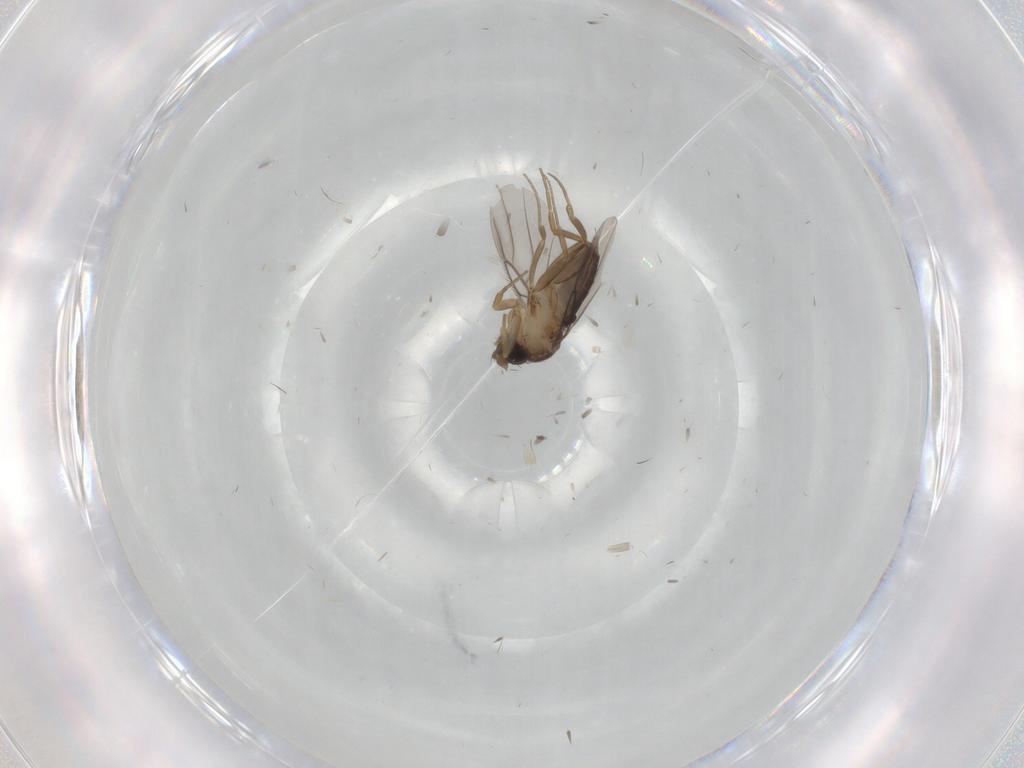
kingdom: Animalia
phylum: Arthropoda
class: Insecta
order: Diptera
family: Phoridae
